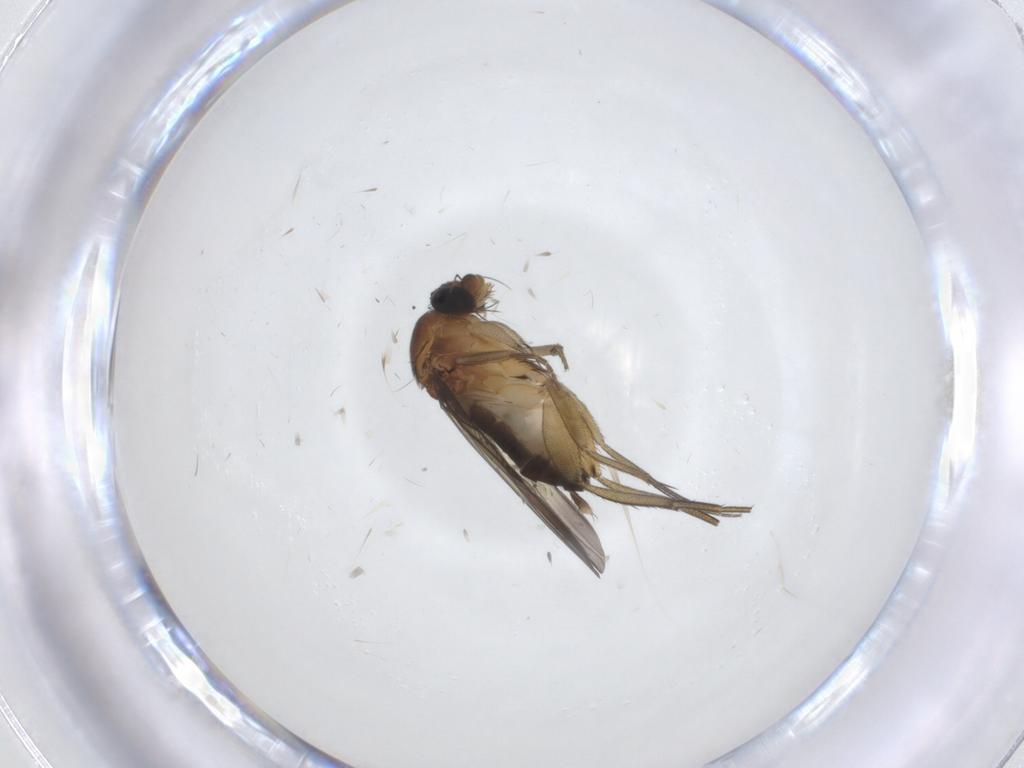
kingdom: Animalia
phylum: Arthropoda
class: Insecta
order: Diptera
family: Phoridae
